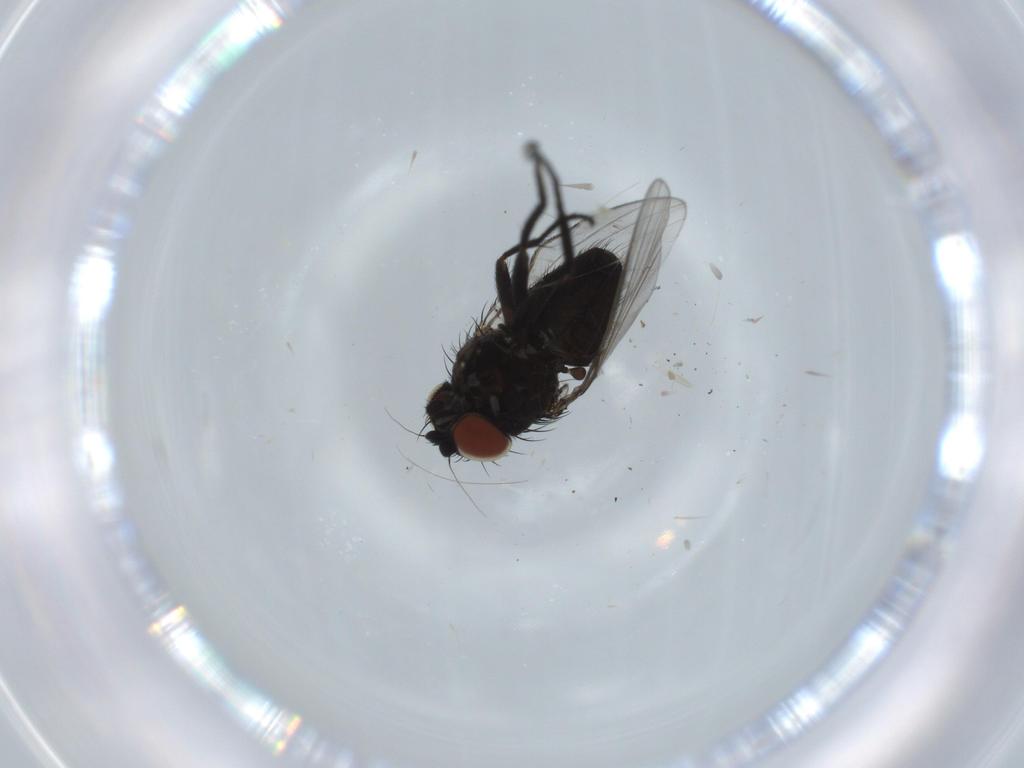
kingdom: Animalia
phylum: Arthropoda
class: Insecta
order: Diptera
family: Milichiidae
